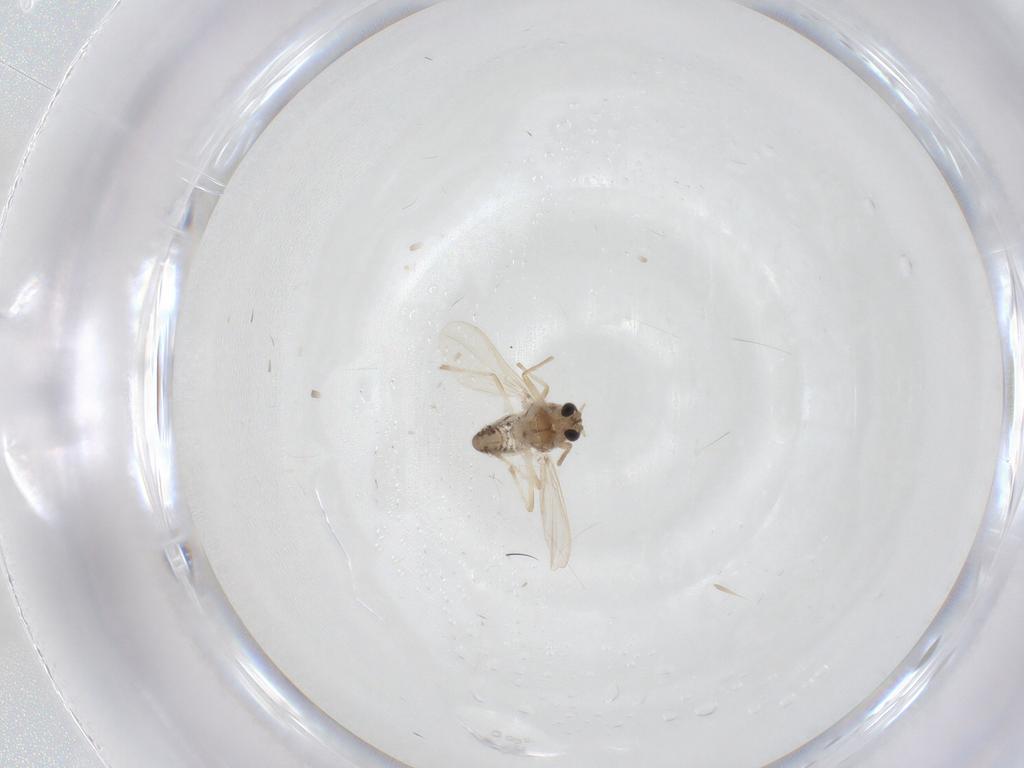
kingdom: Animalia
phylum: Arthropoda
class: Insecta
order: Diptera
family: Chironomidae
